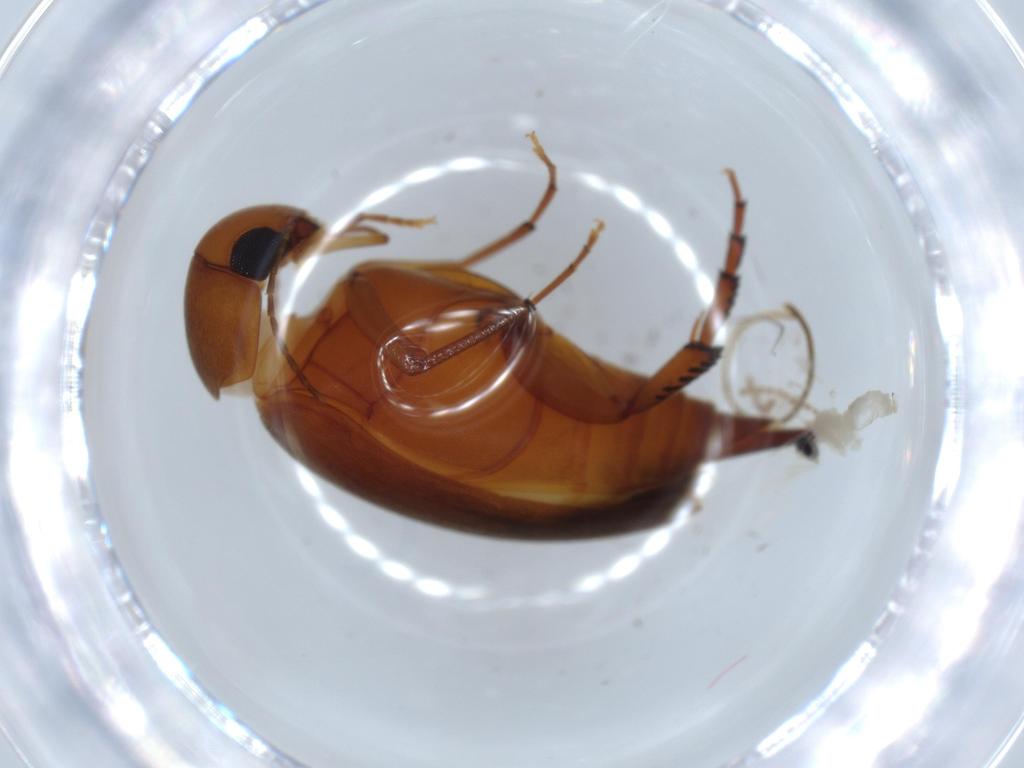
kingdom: Animalia
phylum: Arthropoda
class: Insecta
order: Coleoptera
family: Mordellidae
